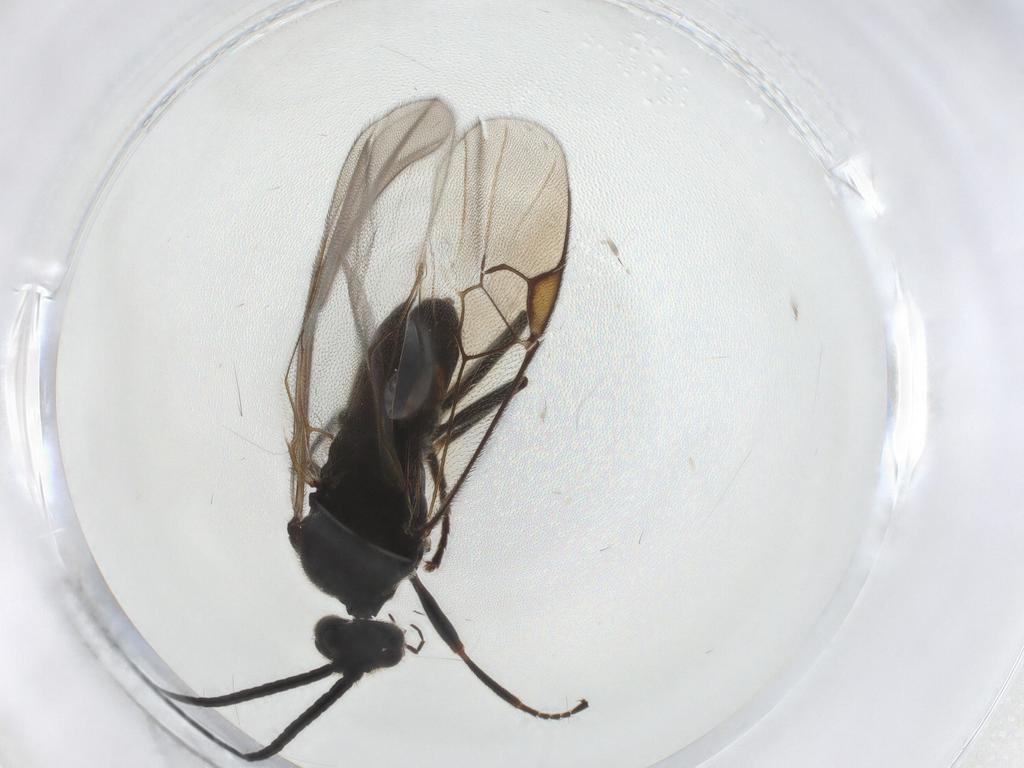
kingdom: Animalia
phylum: Arthropoda
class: Insecta
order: Hymenoptera
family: Braconidae
